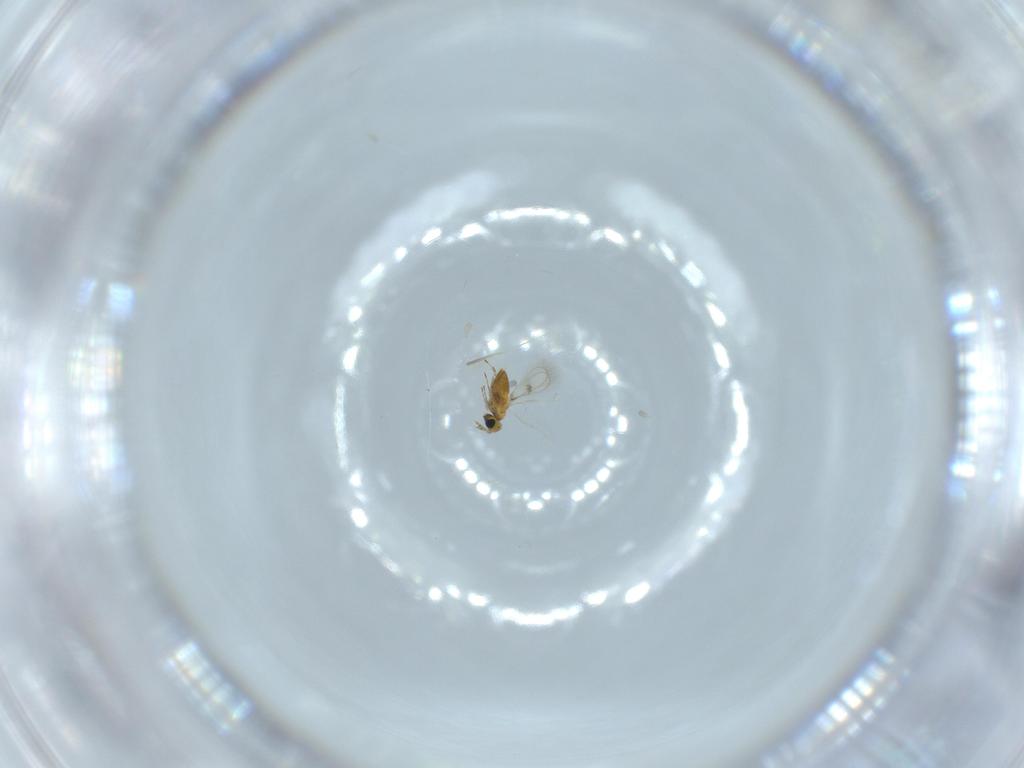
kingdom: Animalia
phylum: Arthropoda
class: Insecta
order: Hymenoptera
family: Trichogrammatidae
